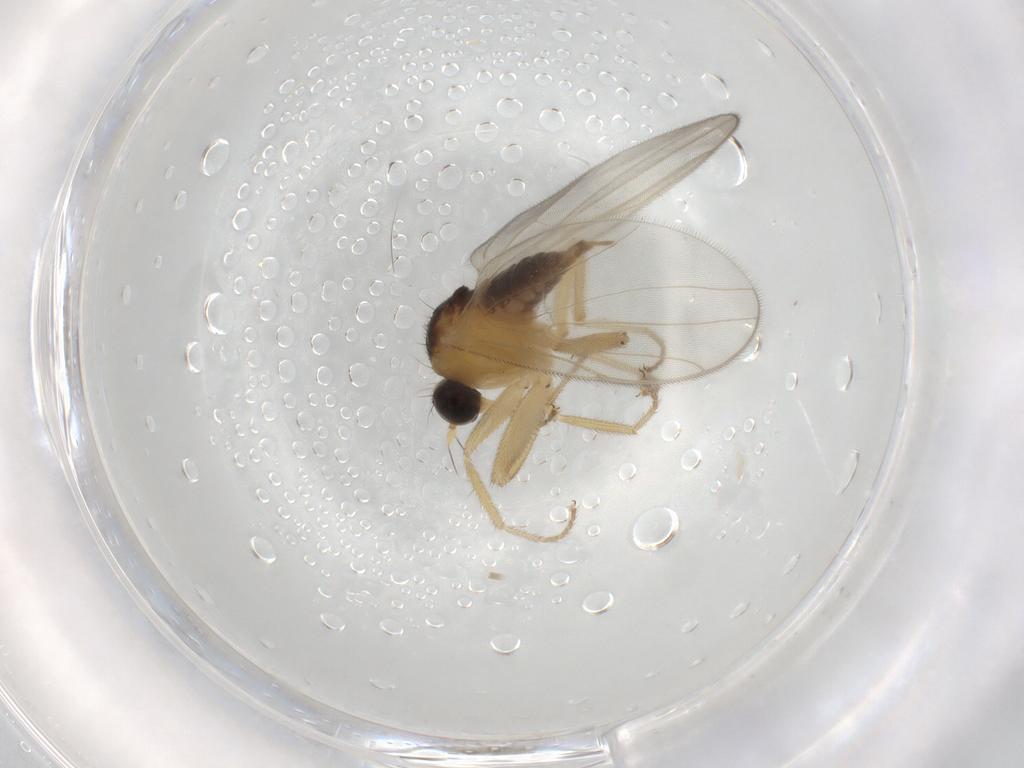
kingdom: Animalia
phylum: Arthropoda
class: Insecta
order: Diptera
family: Hybotidae
